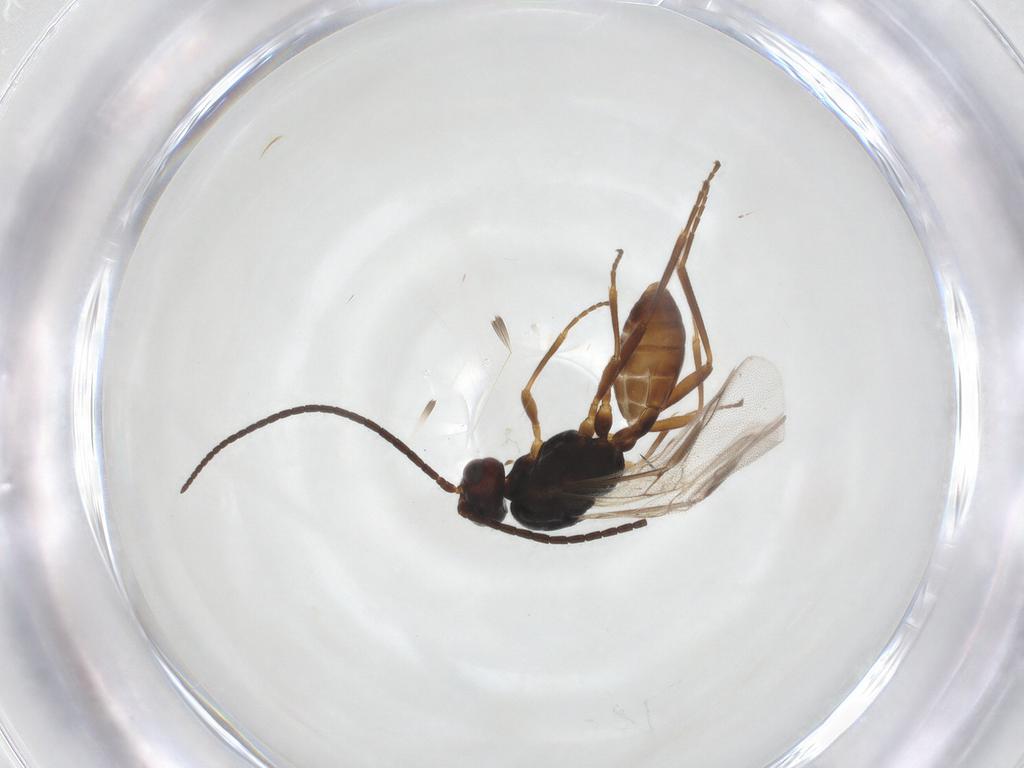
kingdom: Animalia
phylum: Arthropoda
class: Insecta
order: Hymenoptera
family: Braconidae
